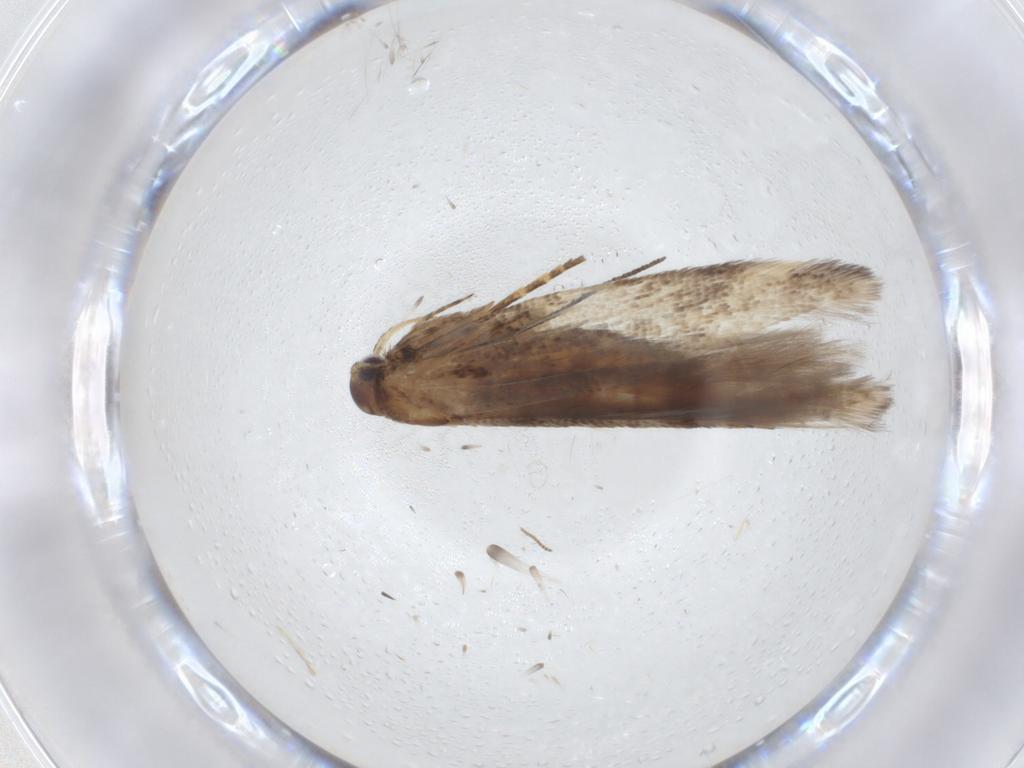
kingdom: Animalia
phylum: Arthropoda
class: Insecta
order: Lepidoptera
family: Gelechiidae
